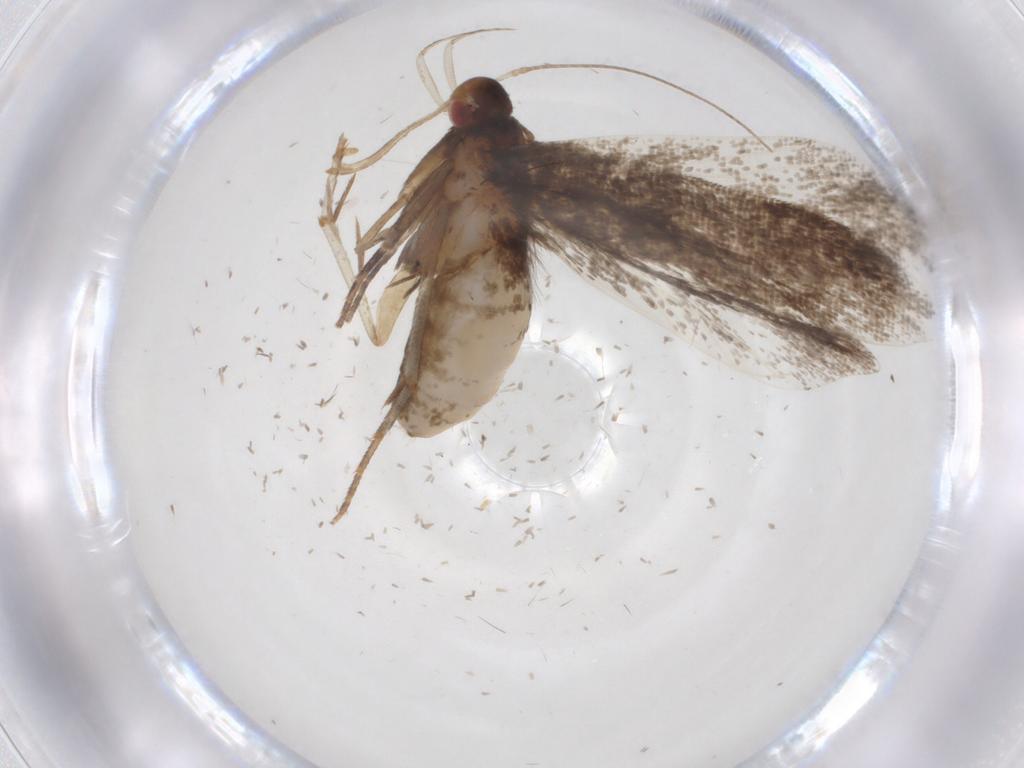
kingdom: Animalia
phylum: Arthropoda
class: Insecta
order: Lepidoptera
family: Gelechiidae
